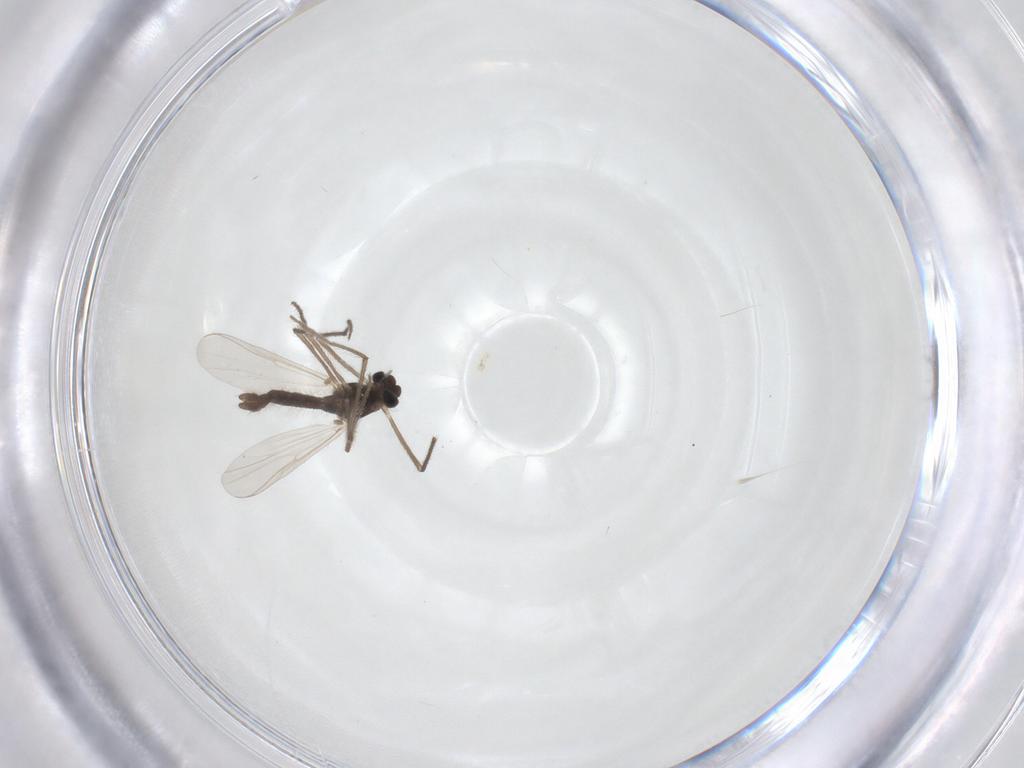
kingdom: Animalia
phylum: Arthropoda
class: Insecta
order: Diptera
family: Chironomidae
